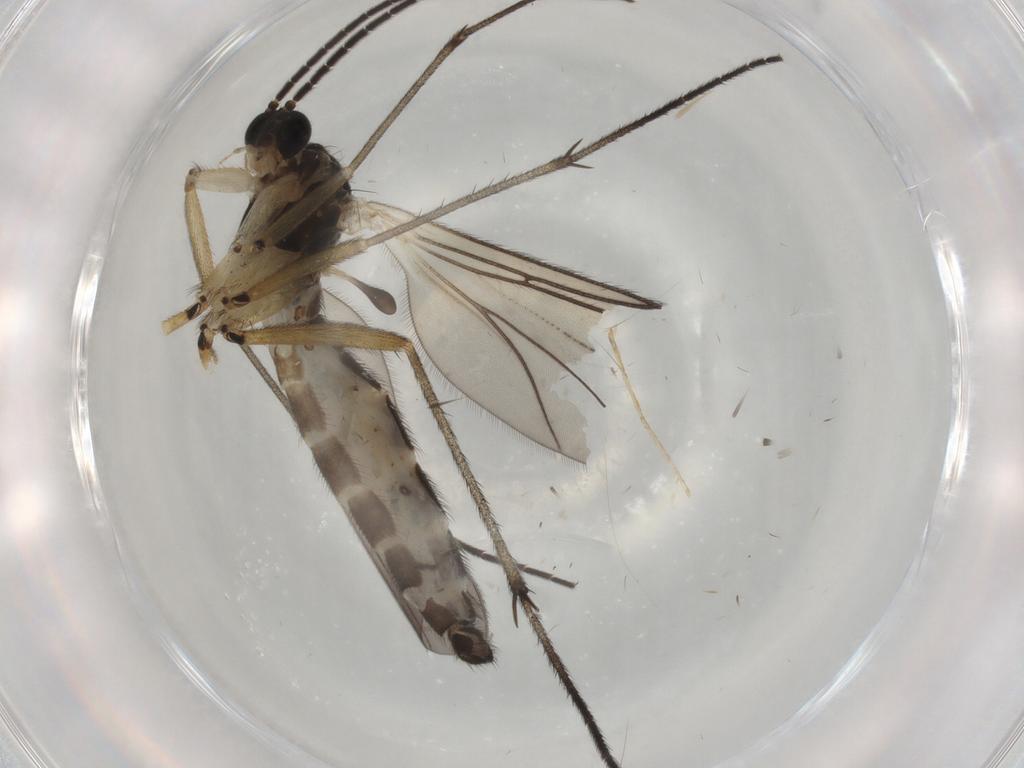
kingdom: Animalia
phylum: Arthropoda
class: Insecta
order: Diptera
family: Sciaridae
